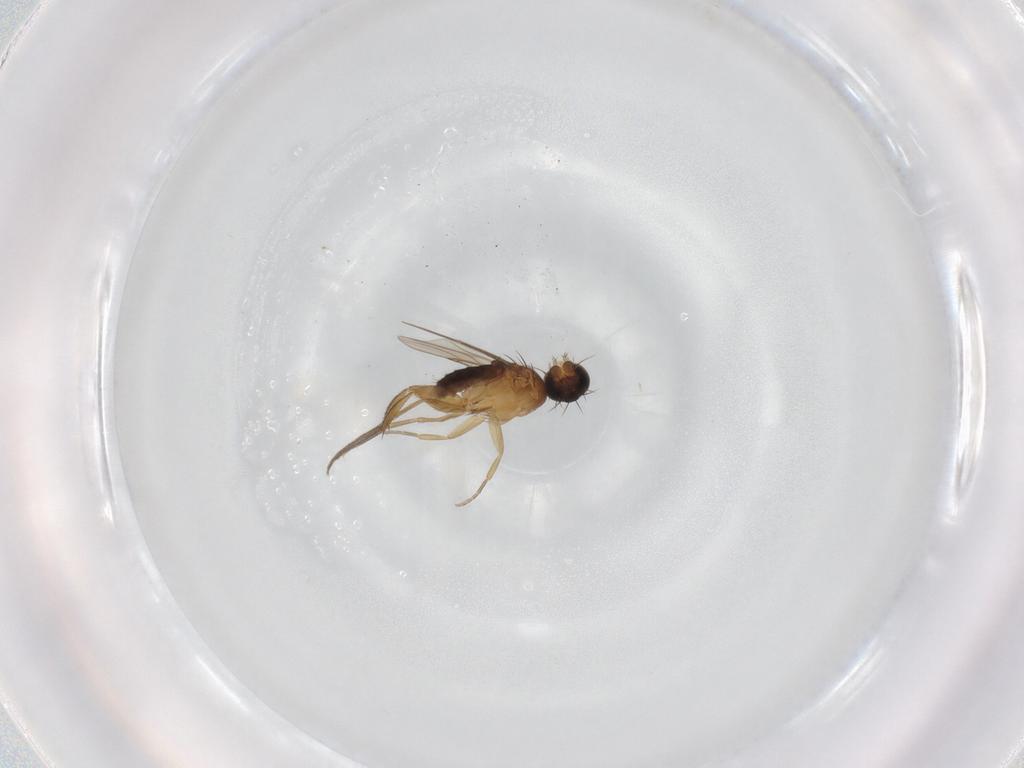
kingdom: Animalia
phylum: Arthropoda
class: Insecta
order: Diptera
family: Phoridae
